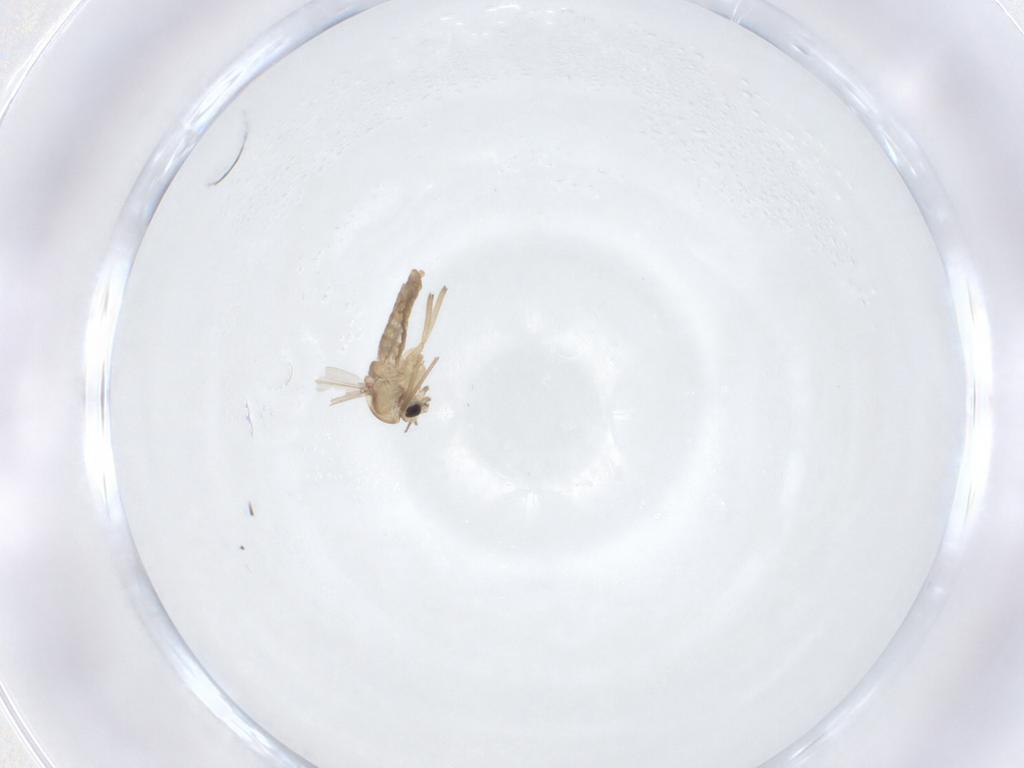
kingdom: Animalia
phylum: Arthropoda
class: Insecta
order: Diptera
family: Chironomidae
